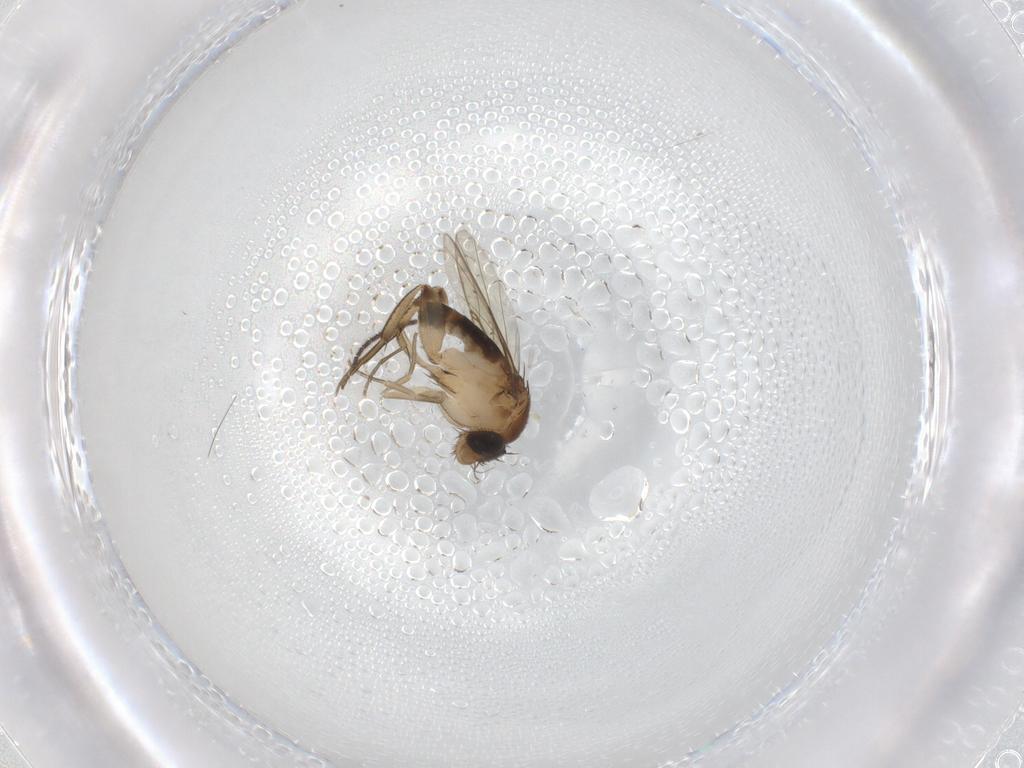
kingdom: Animalia
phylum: Arthropoda
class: Insecta
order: Diptera
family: Phoridae
